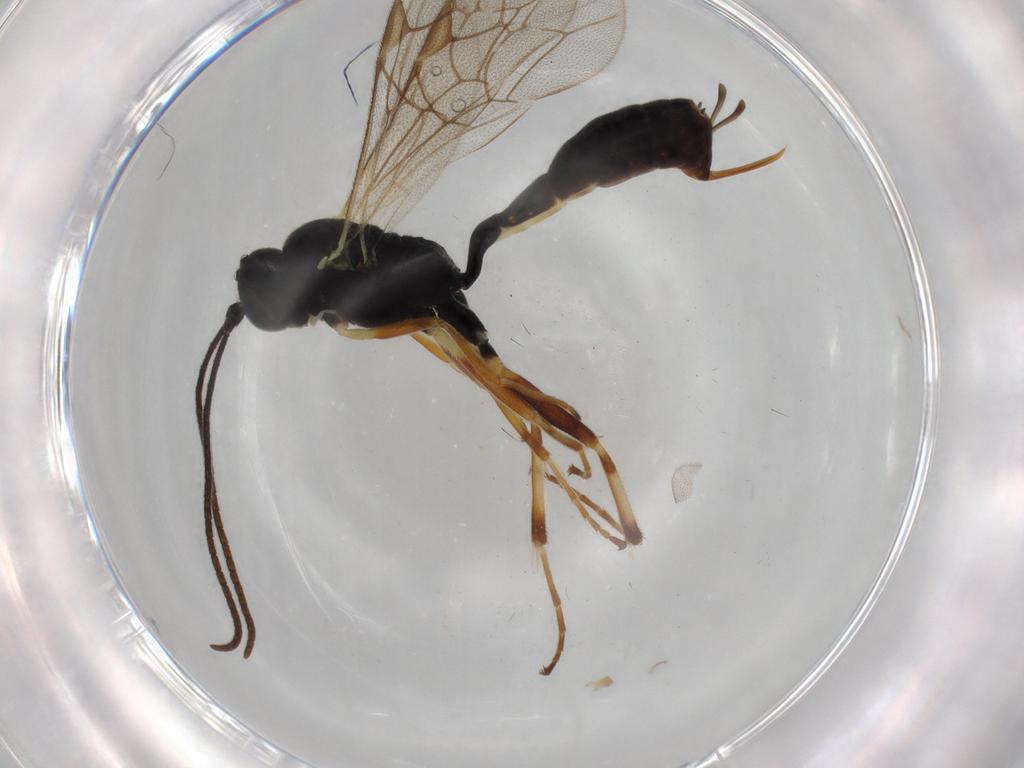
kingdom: Animalia
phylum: Arthropoda
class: Insecta
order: Hymenoptera
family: Ichneumonidae
